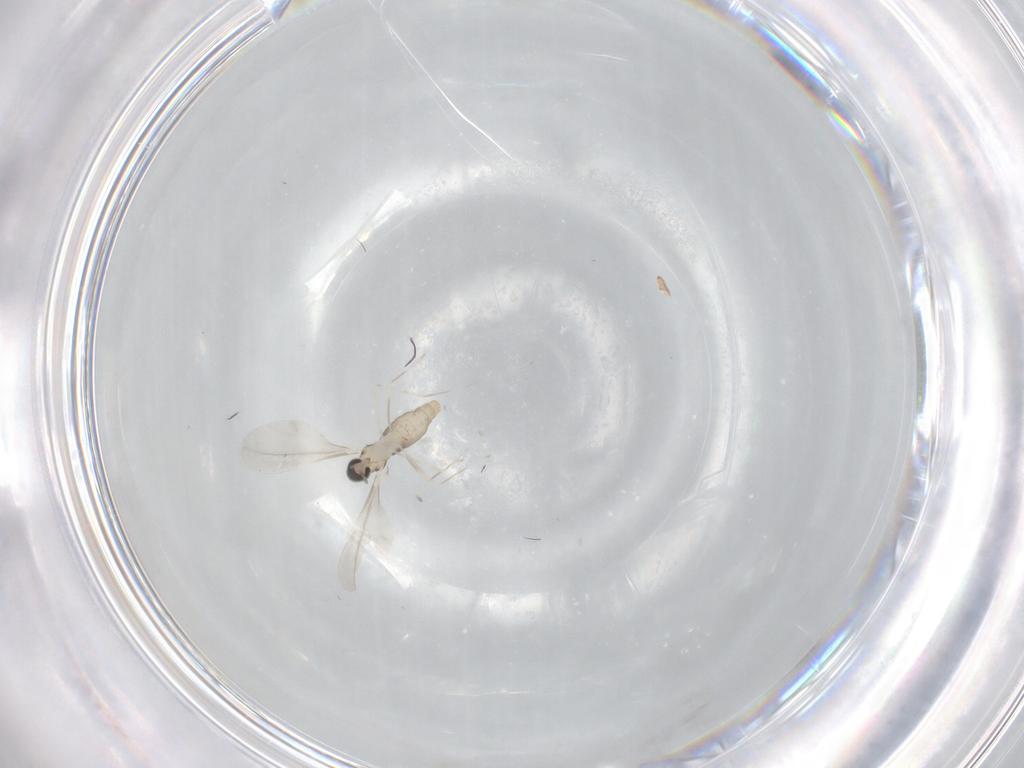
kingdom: Animalia
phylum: Arthropoda
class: Insecta
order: Diptera
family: Cecidomyiidae
